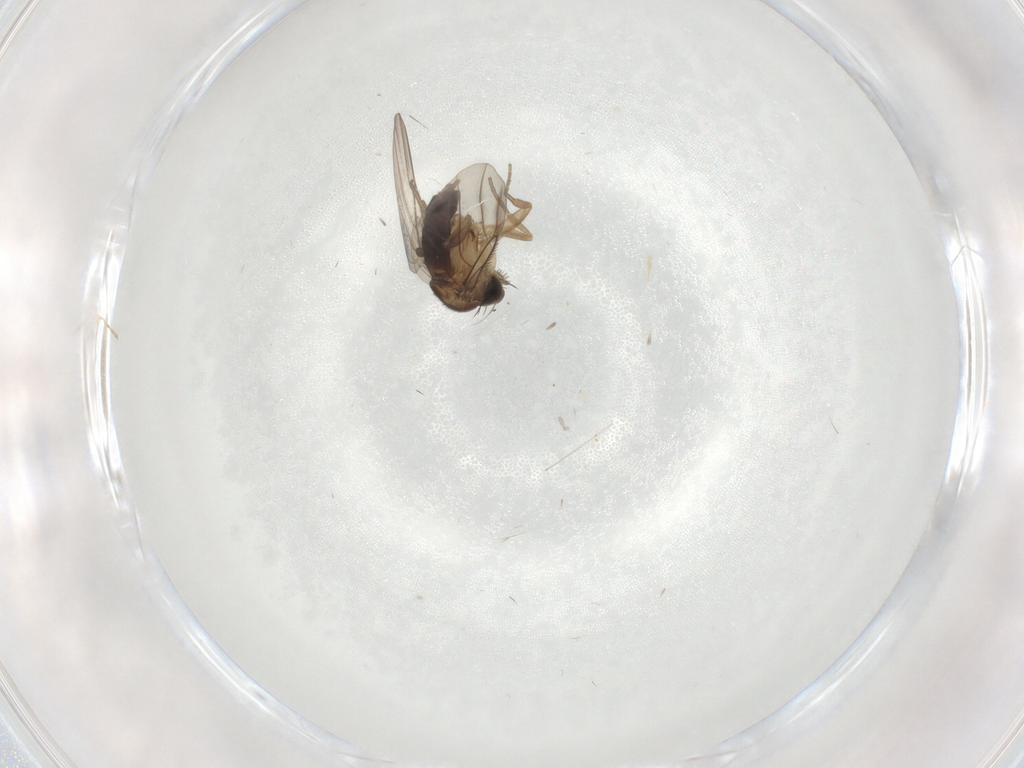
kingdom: Animalia
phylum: Arthropoda
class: Insecta
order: Diptera
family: Phoridae
